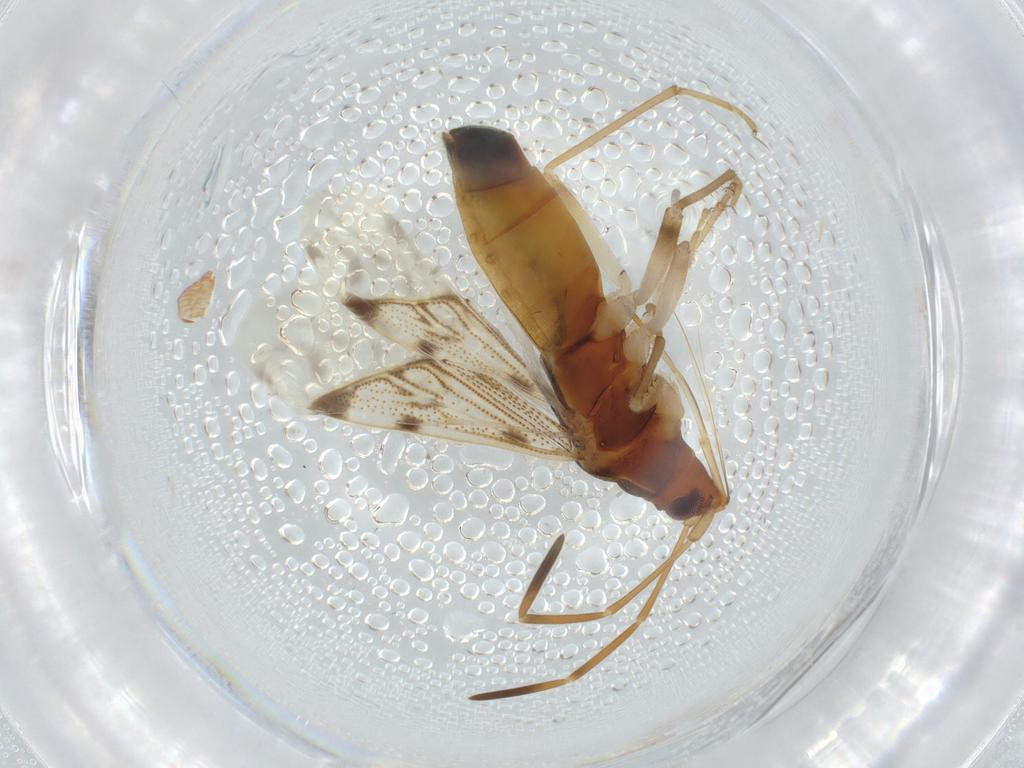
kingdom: Animalia
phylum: Arthropoda
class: Insecta
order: Hemiptera
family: Rhyparochromidae
